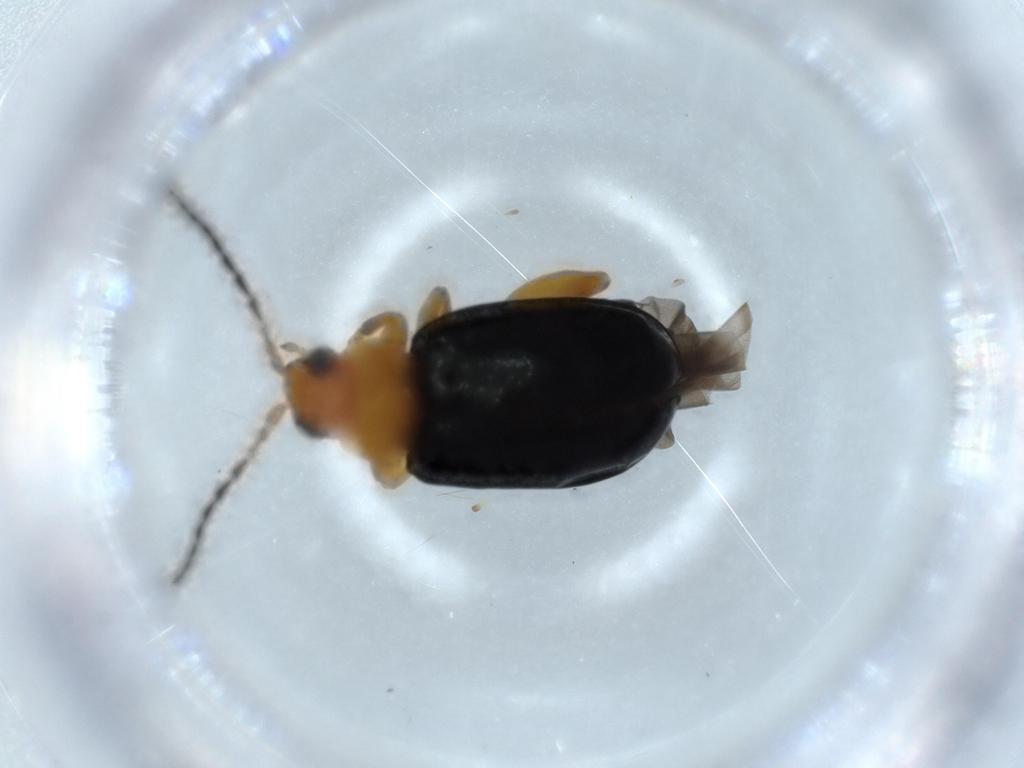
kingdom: Animalia
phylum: Arthropoda
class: Insecta
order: Coleoptera
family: Chrysomelidae
